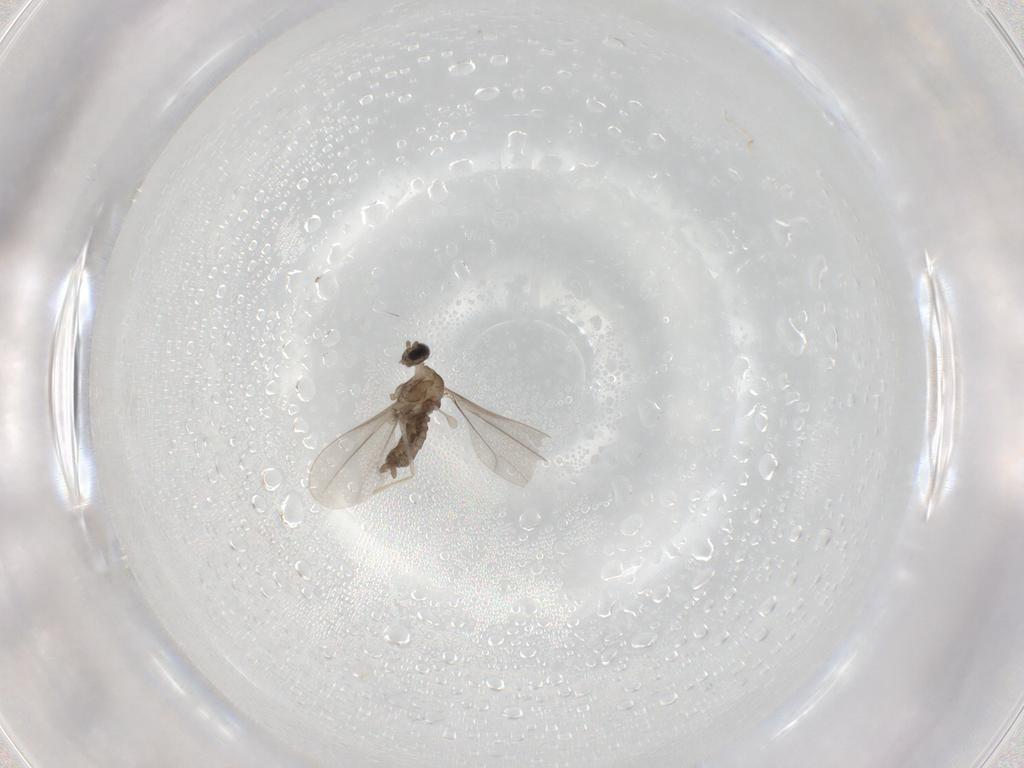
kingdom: Animalia
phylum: Arthropoda
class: Insecta
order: Diptera
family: Cecidomyiidae
